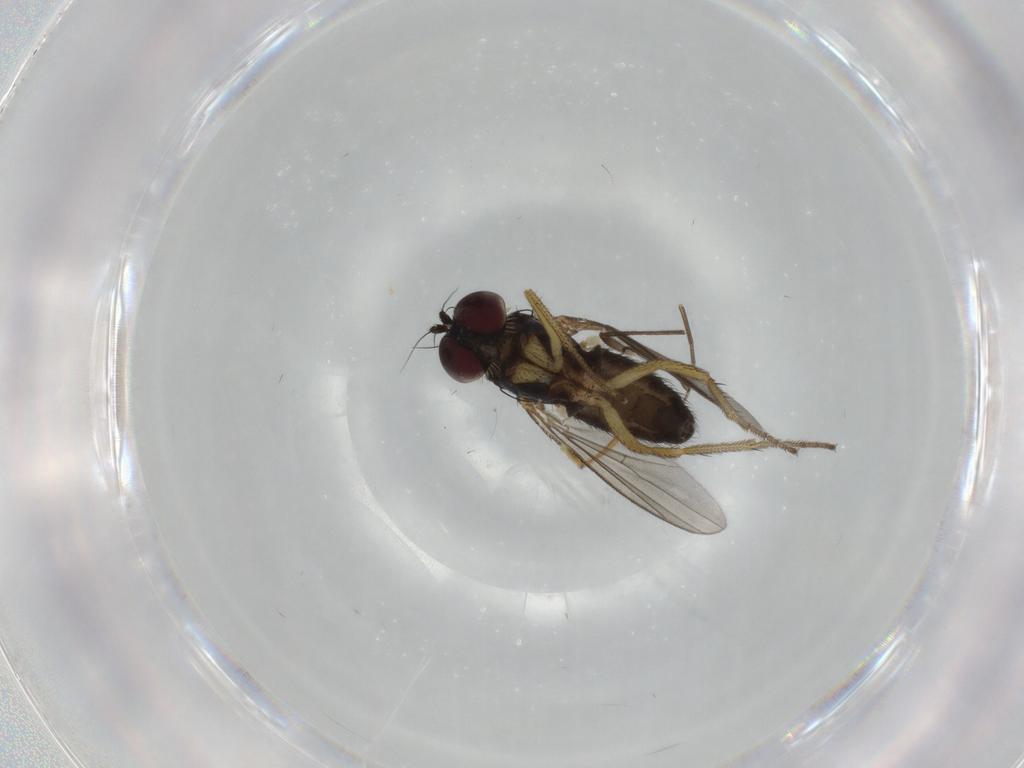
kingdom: Animalia
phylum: Arthropoda
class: Insecta
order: Diptera
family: Sciaridae
